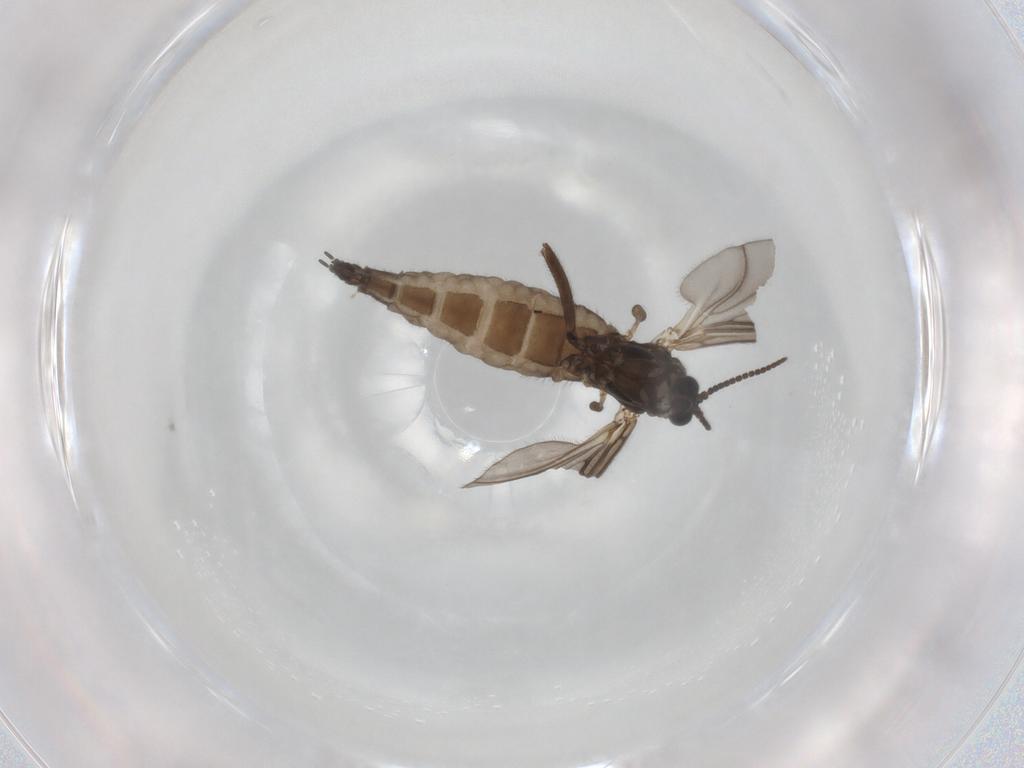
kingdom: Animalia
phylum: Arthropoda
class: Insecta
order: Diptera
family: Sciaridae
